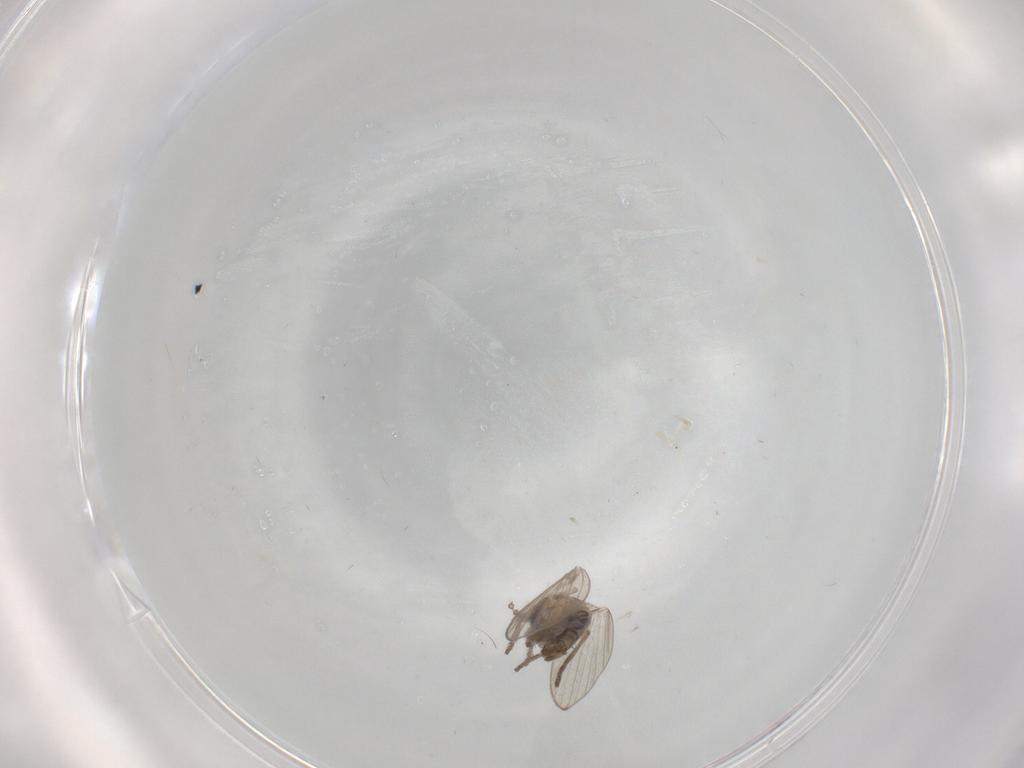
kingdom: Animalia
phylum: Arthropoda
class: Insecta
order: Diptera
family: Psychodidae
